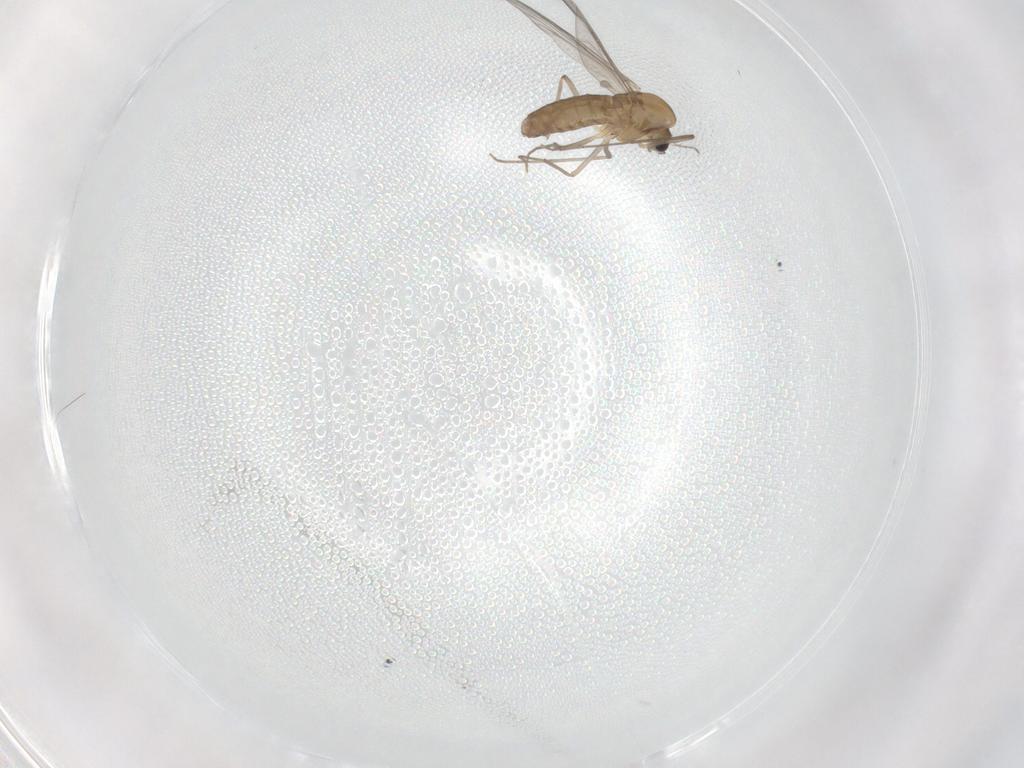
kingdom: Animalia
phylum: Arthropoda
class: Insecta
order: Diptera
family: Chironomidae
